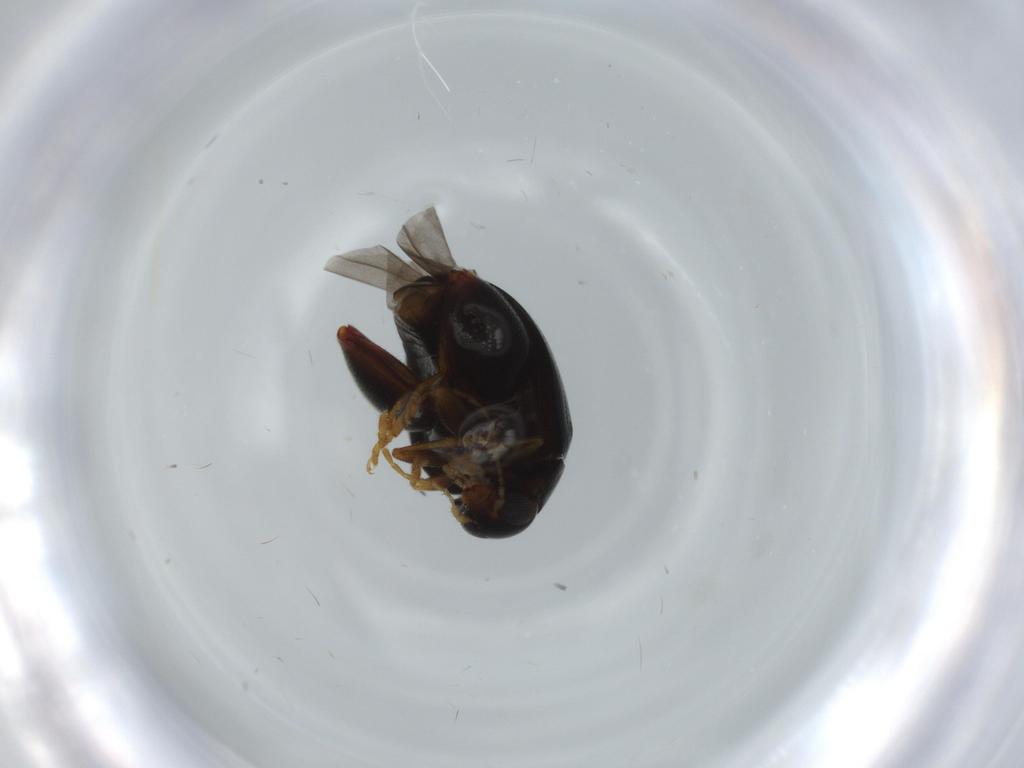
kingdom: Animalia
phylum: Arthropoda
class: Insecta
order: Coleoptera
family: Chrysomelidae
